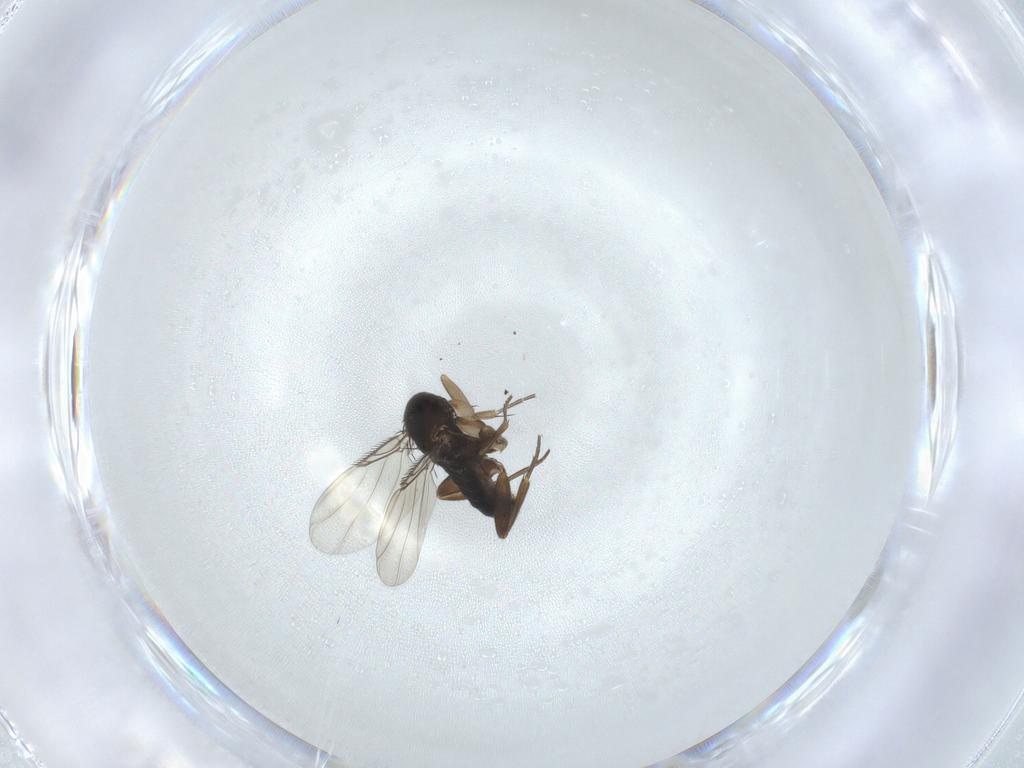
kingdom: Animalia
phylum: Arthropoda
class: Insecta
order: Diptera
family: Phoridae
